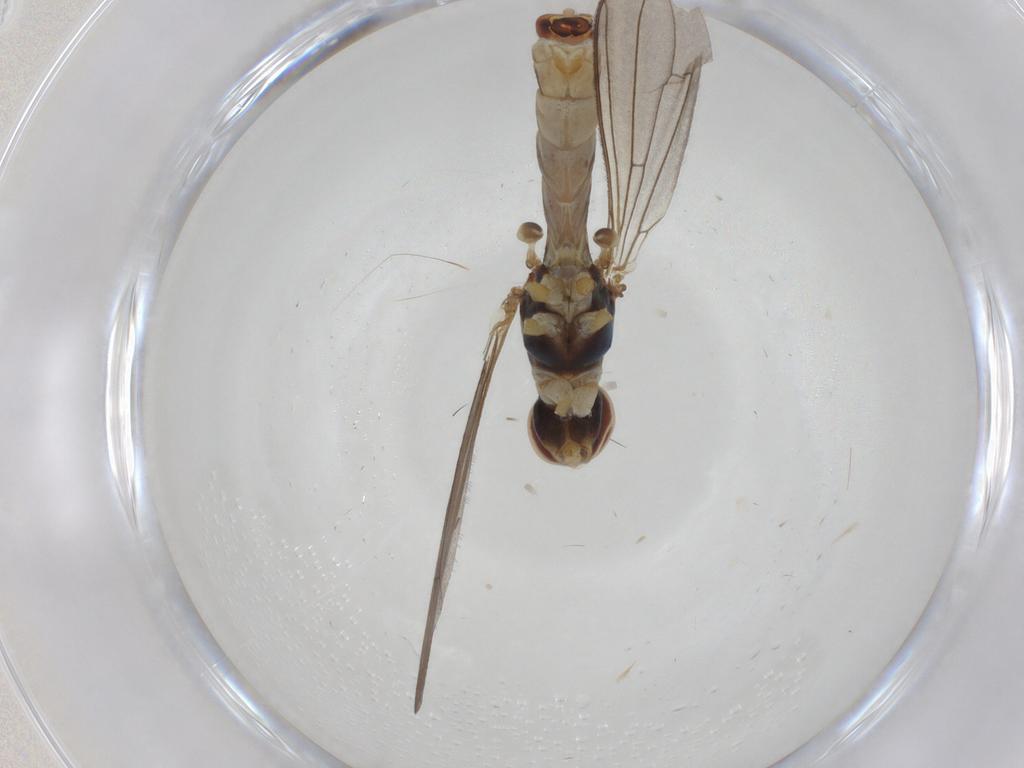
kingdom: Animalia
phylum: Arthropoda
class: Insecta
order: Diptera
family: Micropezidae
